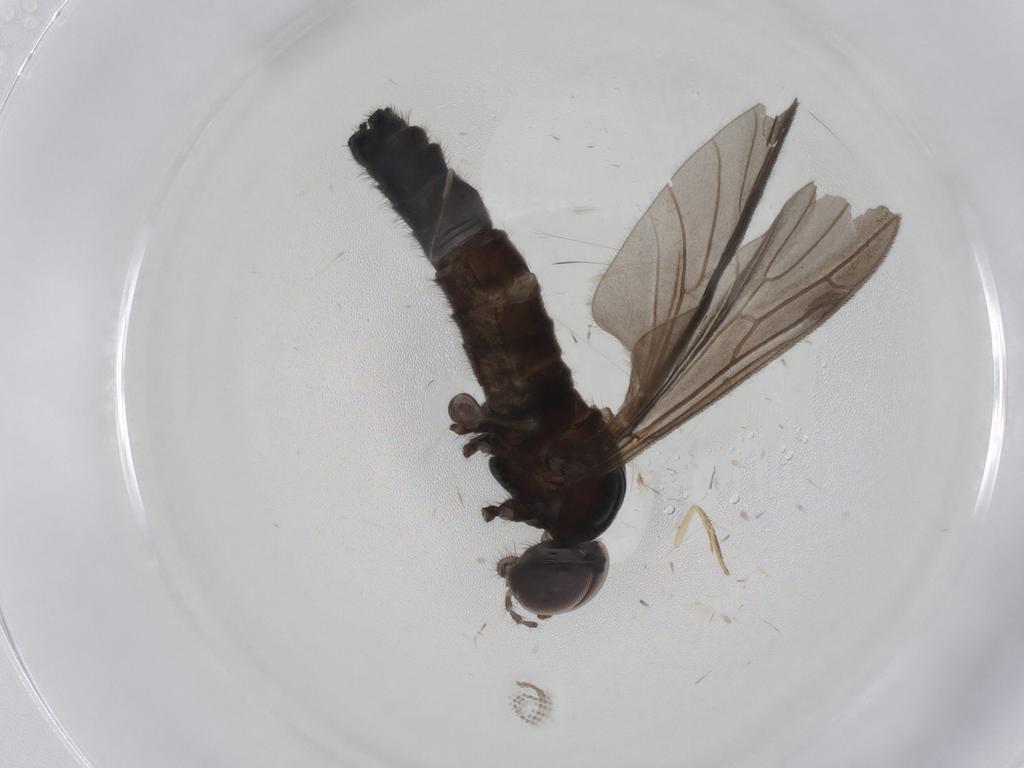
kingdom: Animalia
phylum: Arthropoda
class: Insecta
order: Diptera
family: Bibionidae
